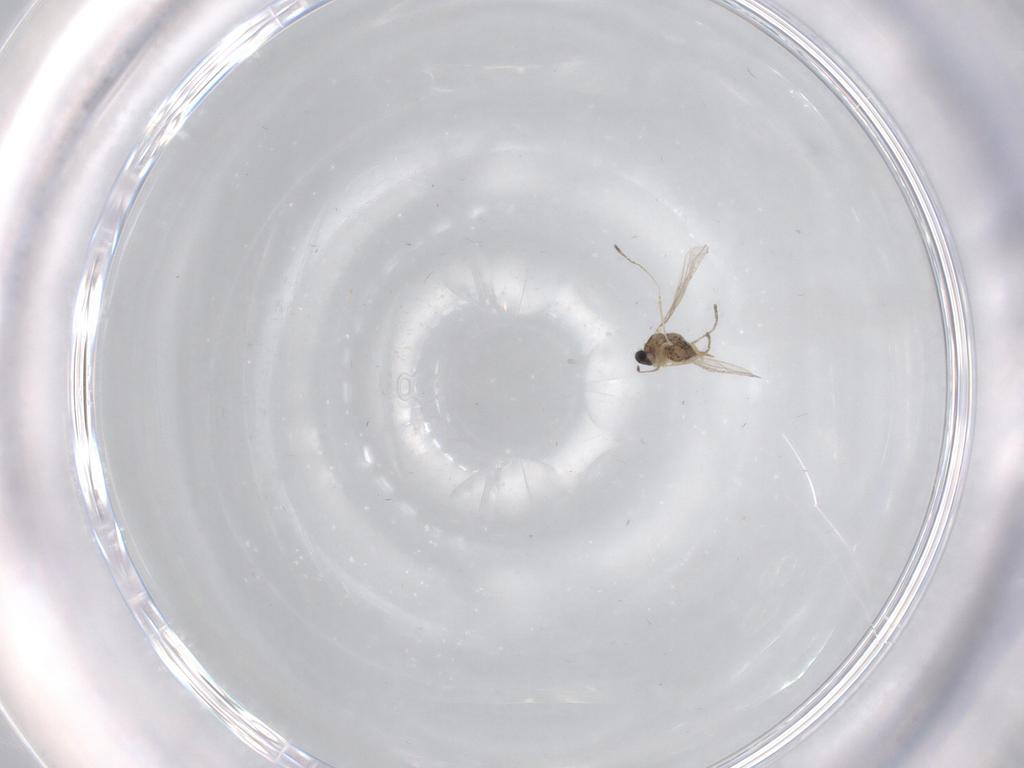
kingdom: Animalia
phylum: Arthropoda
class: Insecta
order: Diptera
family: Cecidomyiidae
